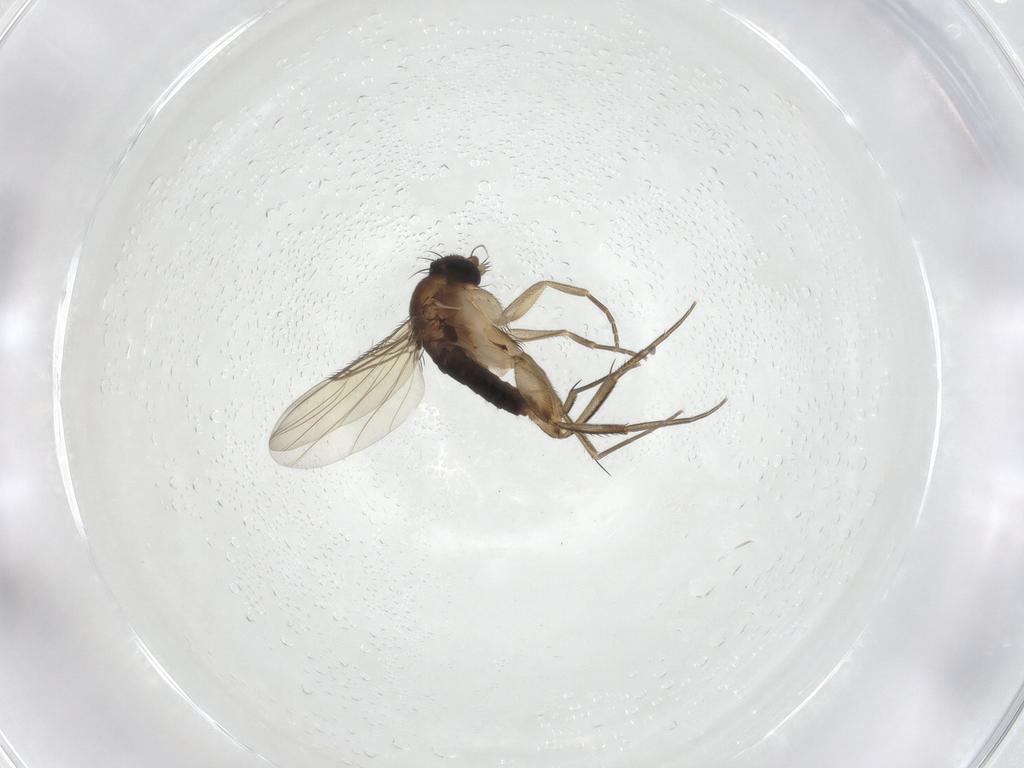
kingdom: Animalia
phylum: Arthropoda
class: Insecta
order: Diptera
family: Phoridae
